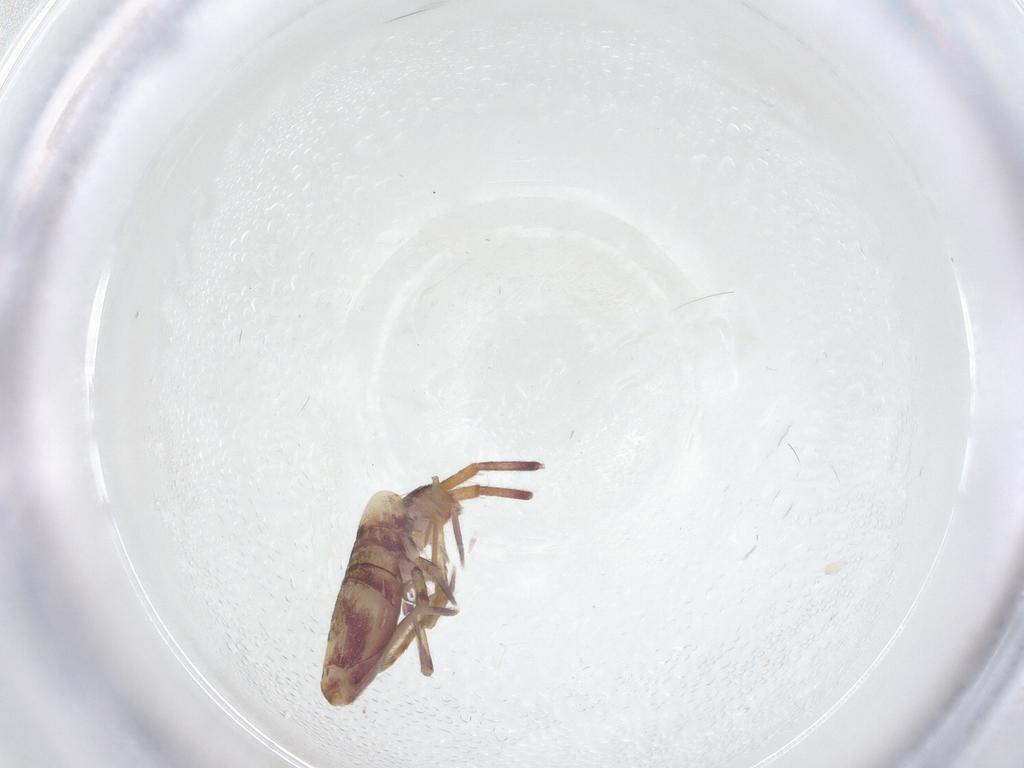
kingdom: Animalia
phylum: Arthropoda
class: Collembola
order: Entomobryomorpha
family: Entomobryidae
